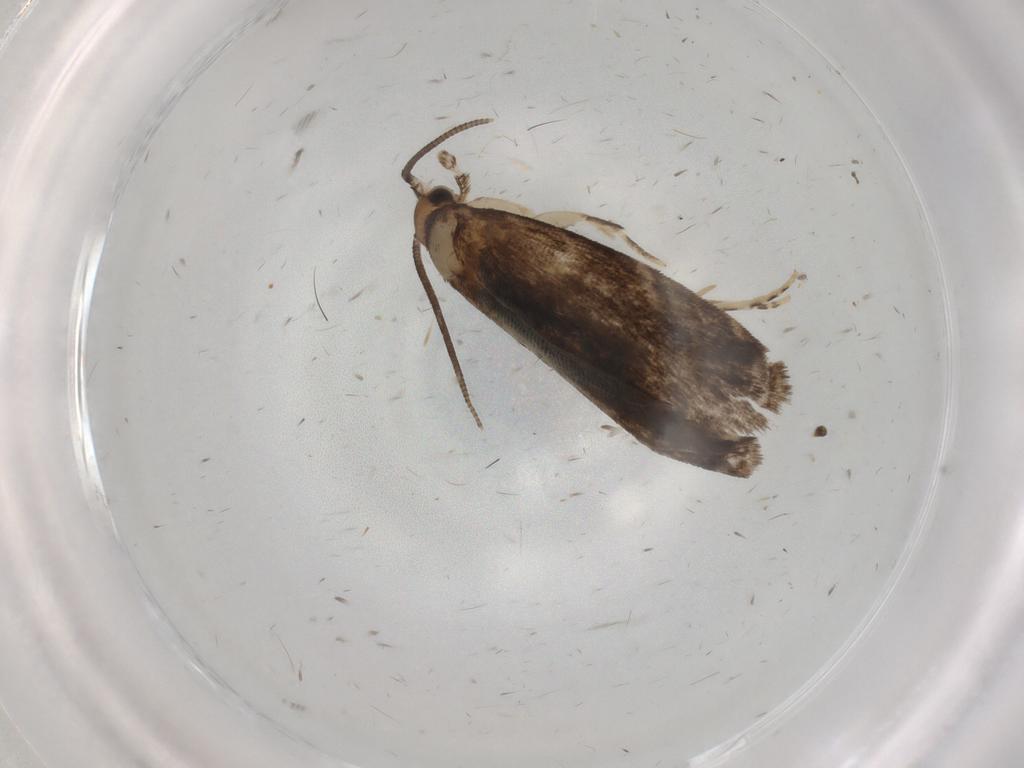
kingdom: Animalia
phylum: Arthropoda
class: Insecta
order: Lepidoptera
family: Dryadaulidae
